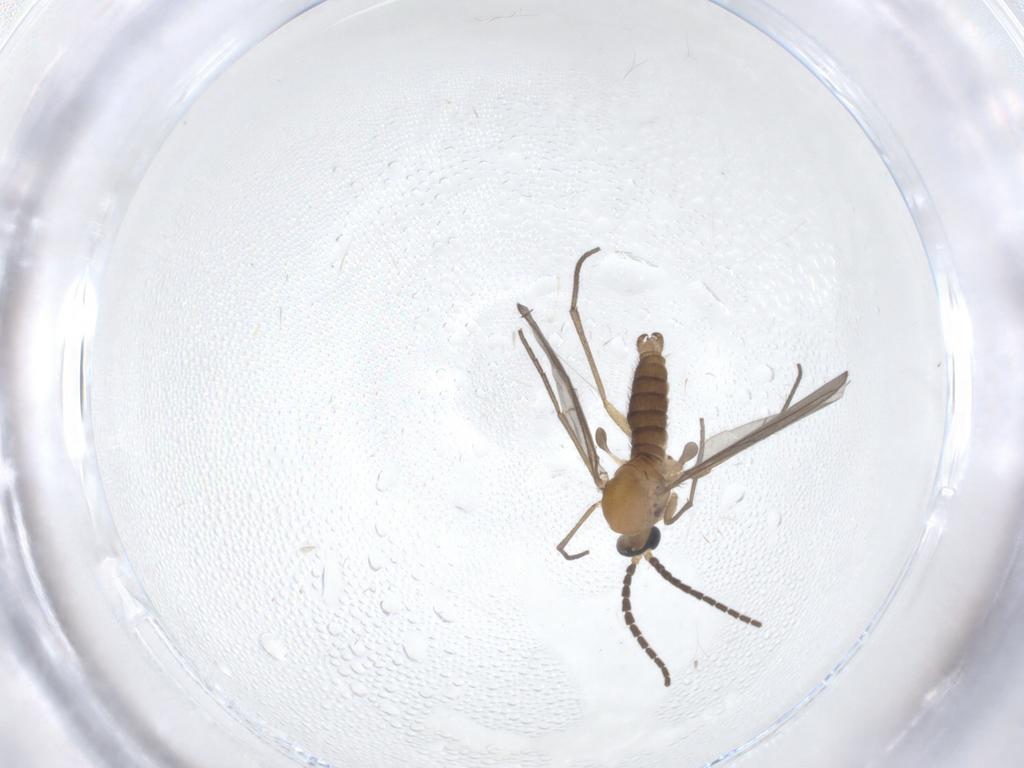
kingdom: Animalia
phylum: Arthropoda
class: Insecta
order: Diptera
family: Sciaridae
